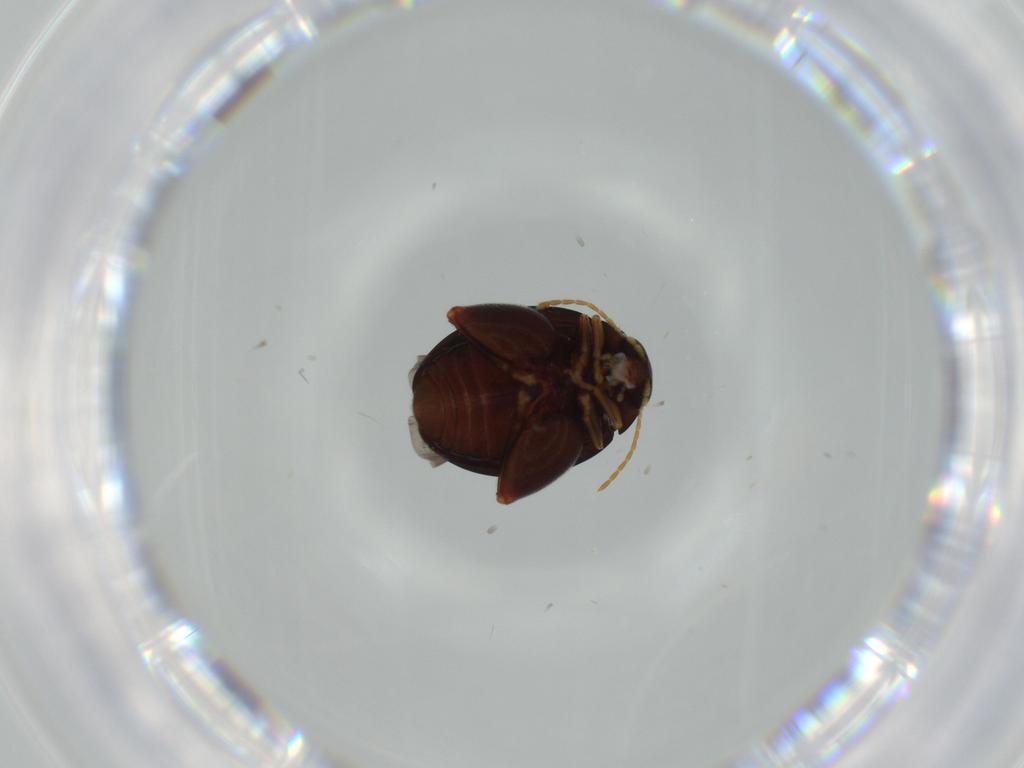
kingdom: Animalia
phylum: Arthropoda
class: Insecta
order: Coleoptera
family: Chrysomelidae
